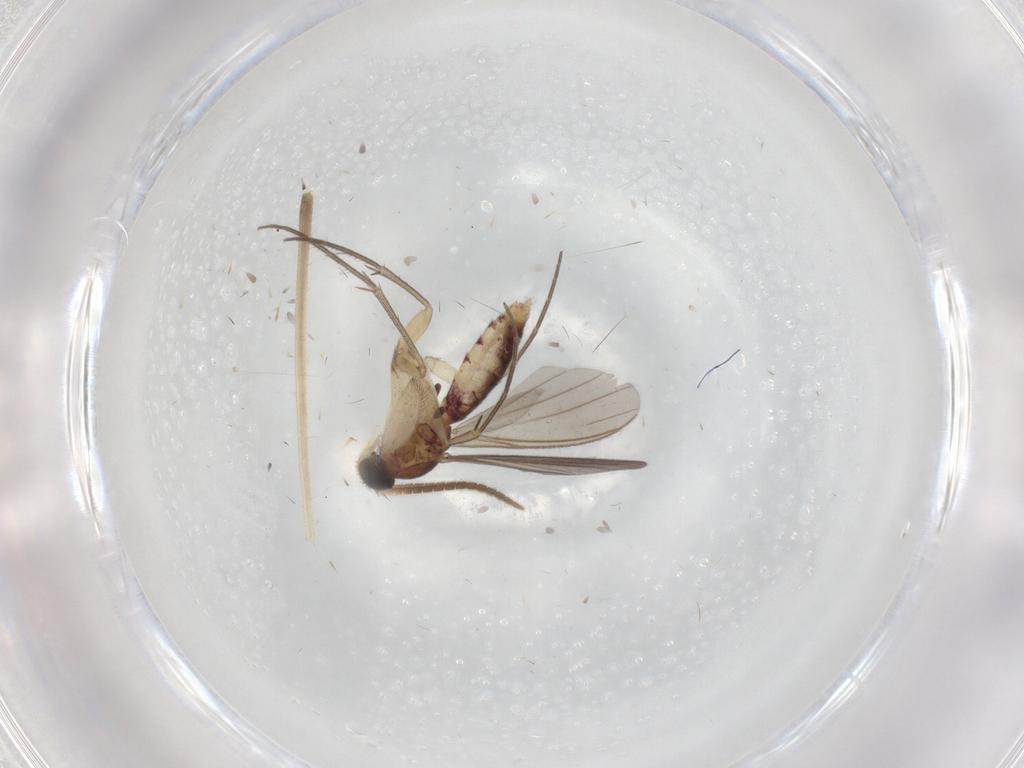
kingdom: Animalia
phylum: Arthropoda
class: Insecta
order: Diptera
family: Mycetophilidae
